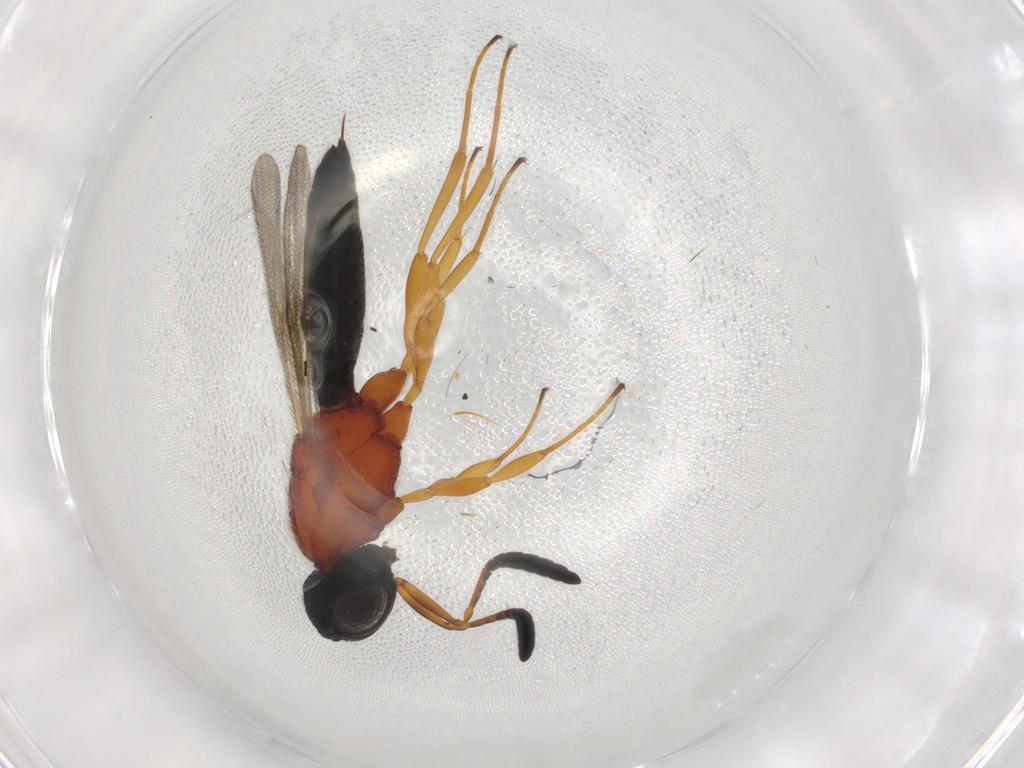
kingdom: Animalia
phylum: Arthropoda
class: Insecta
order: Hymenoptera
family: Scelionidae
